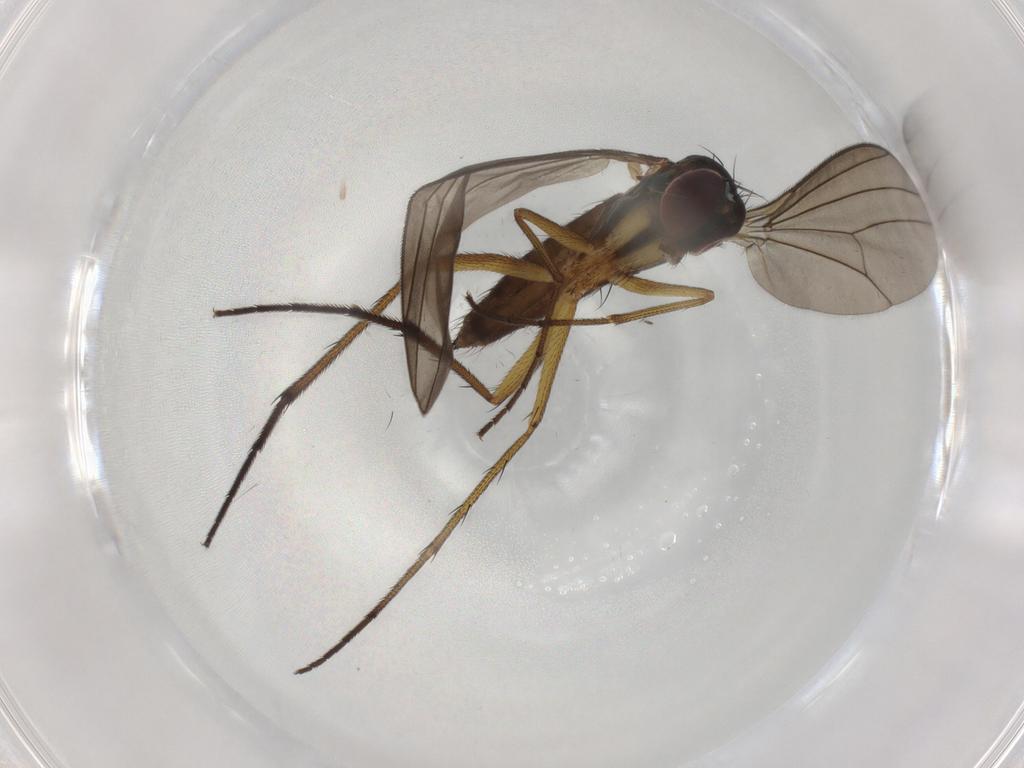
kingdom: Animalia
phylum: Arthropoda
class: Insecta
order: Diptera
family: Dolichopodidae
